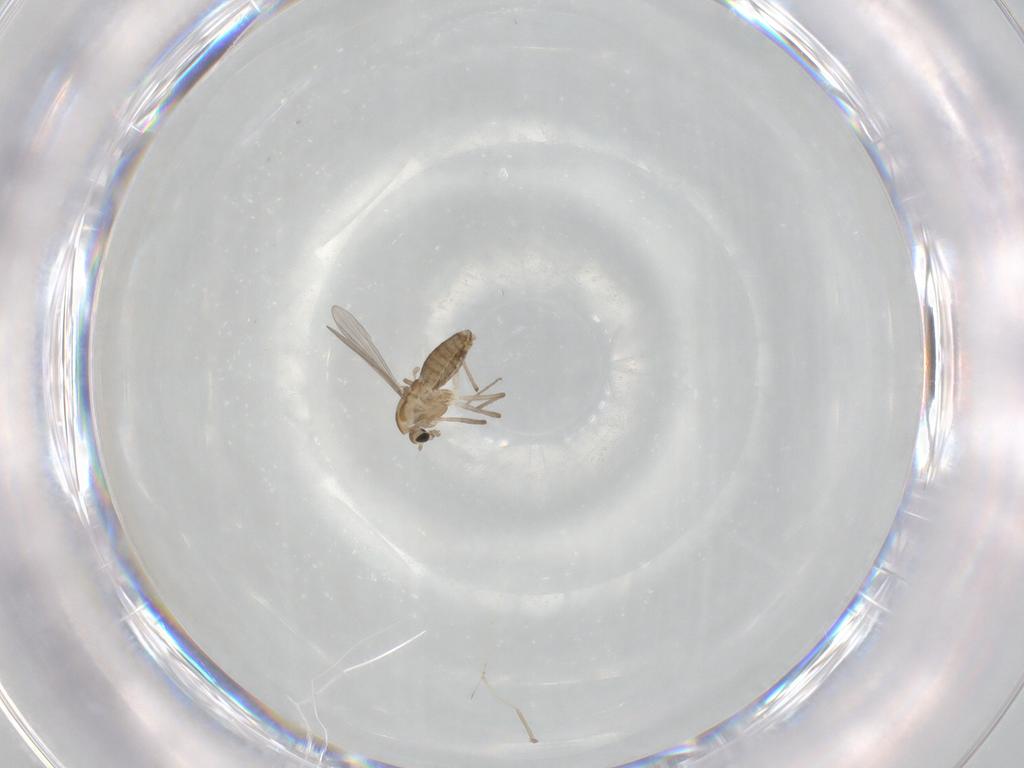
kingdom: Animalia
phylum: Arthropoda
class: Insecta
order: Diptera
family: Chironomidae
